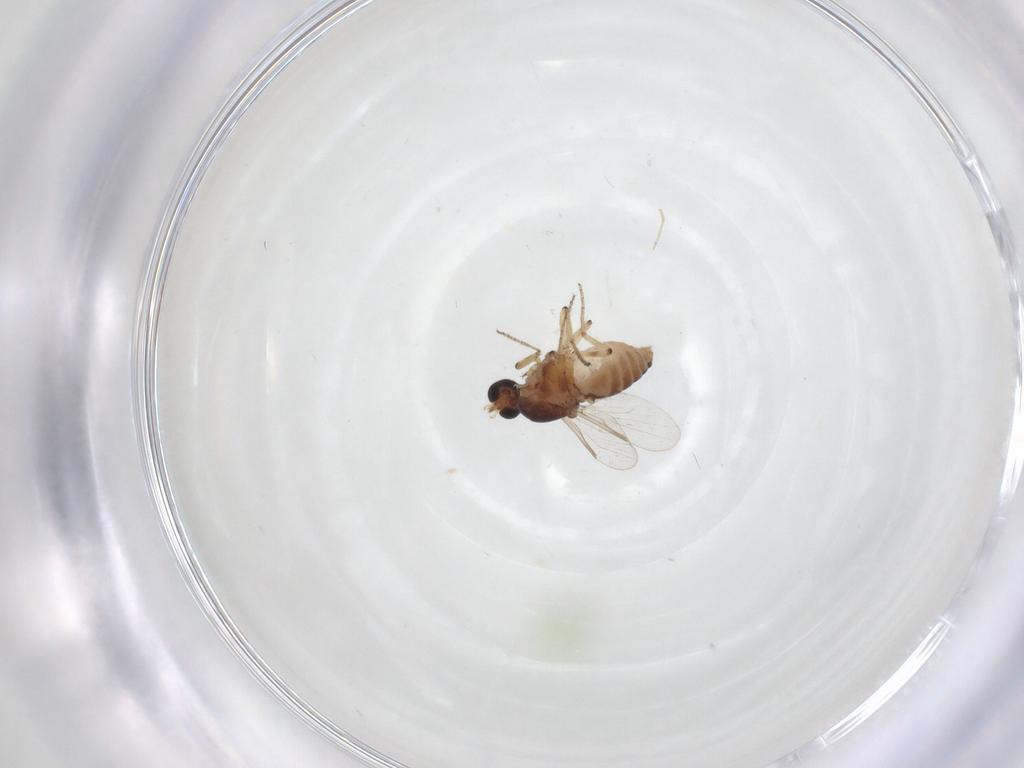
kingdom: Animalia
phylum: Arthropoda
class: Insecta
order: Diptera
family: Ceratopogonidae
